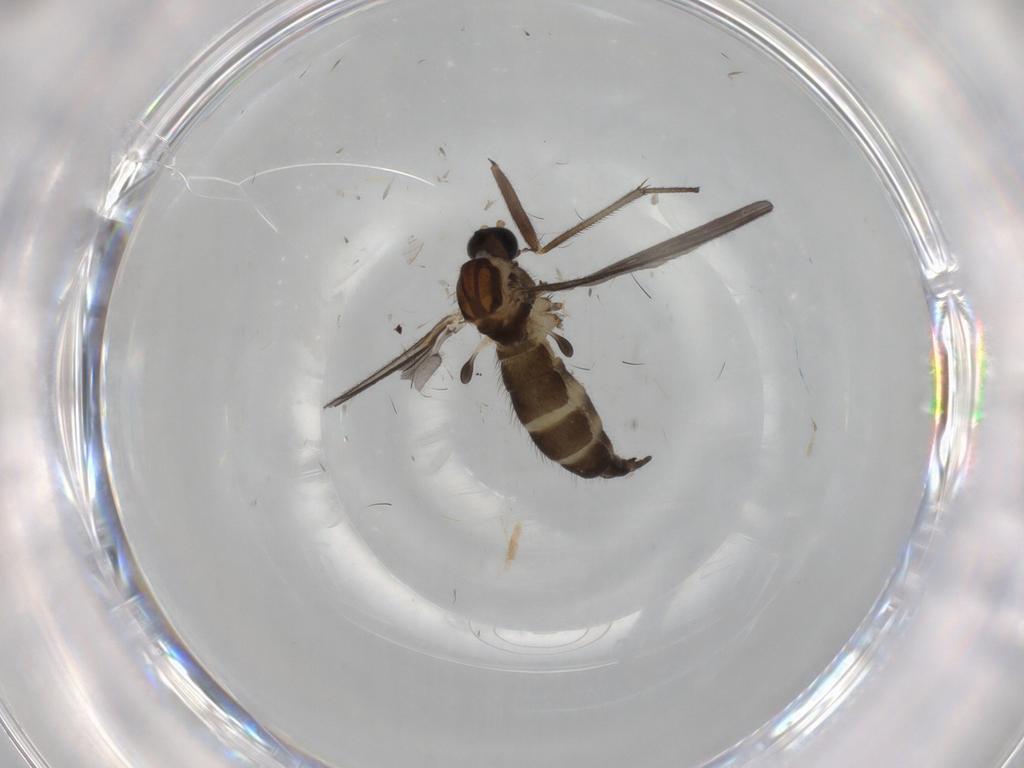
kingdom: Animalia
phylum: Arthropoda
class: Insecta
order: Diptera
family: Sciaridae
